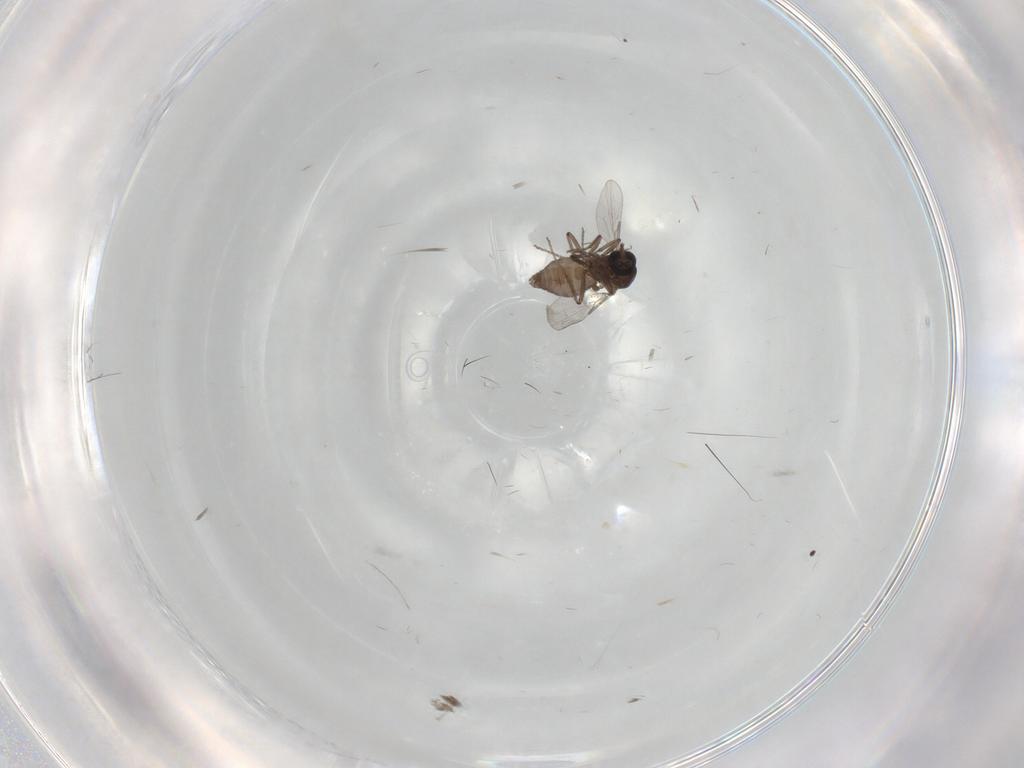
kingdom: Animalia
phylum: Arthropoda
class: Insecta
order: Diptera
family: Ceratopogonidae
